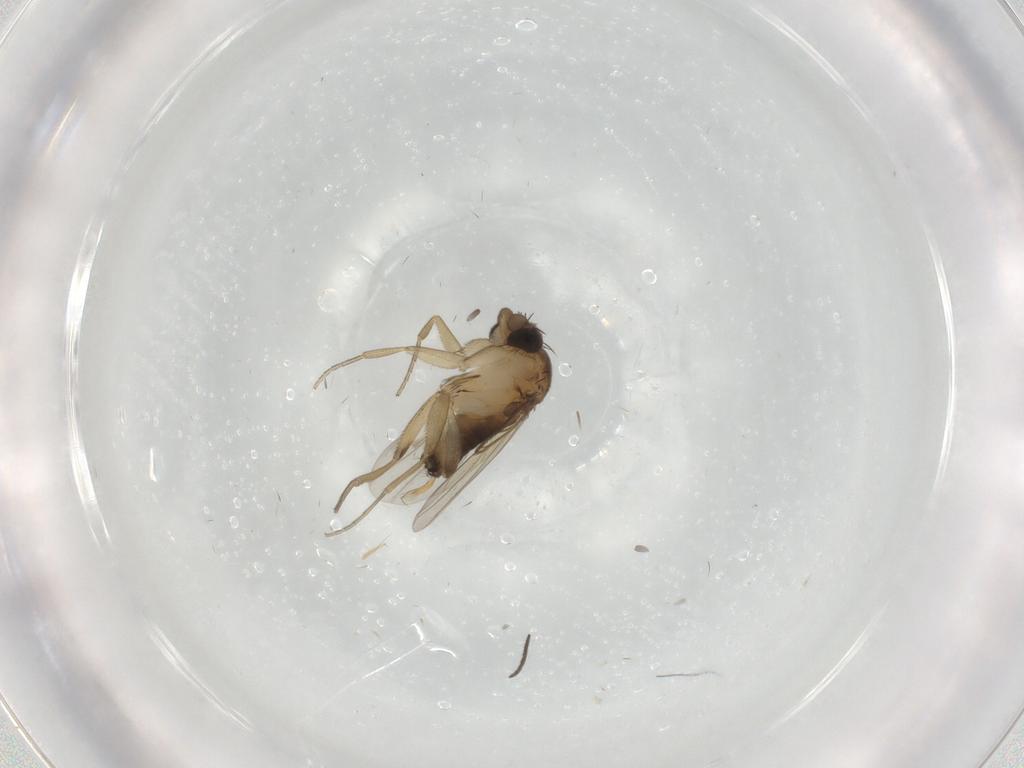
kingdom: Animalia
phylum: Arthropoda
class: Insecta
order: Diptera
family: Phoridae
